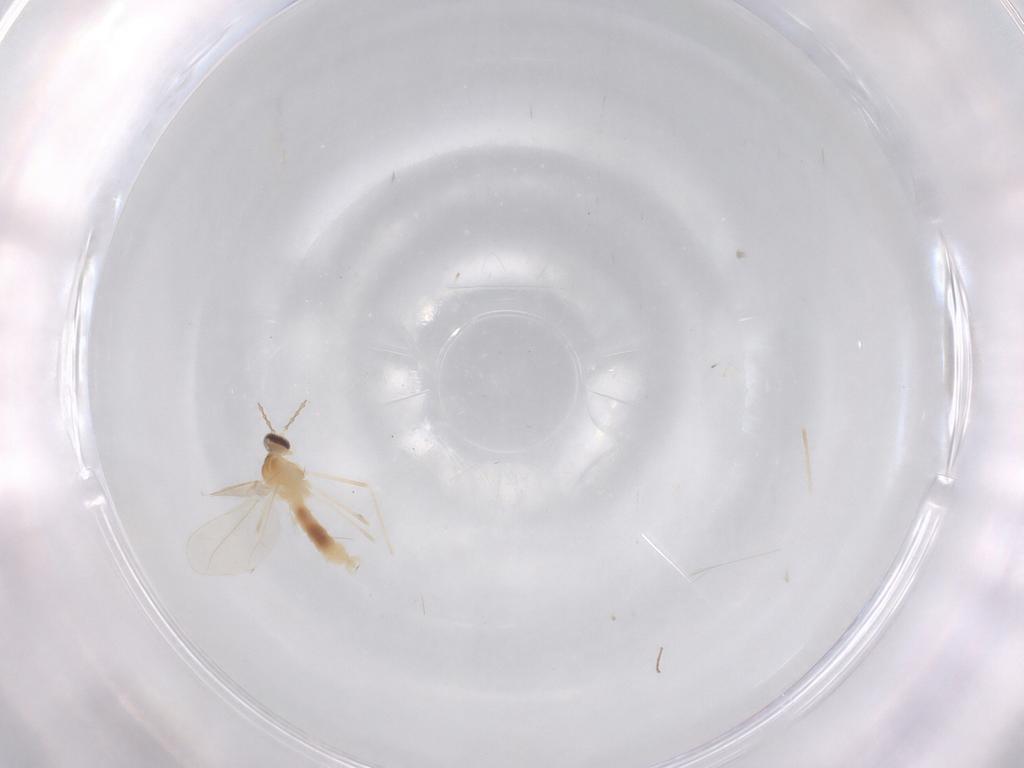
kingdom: Animalia
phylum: Arthropoda
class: Insecta
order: Diptera
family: Cecidomyiidae
